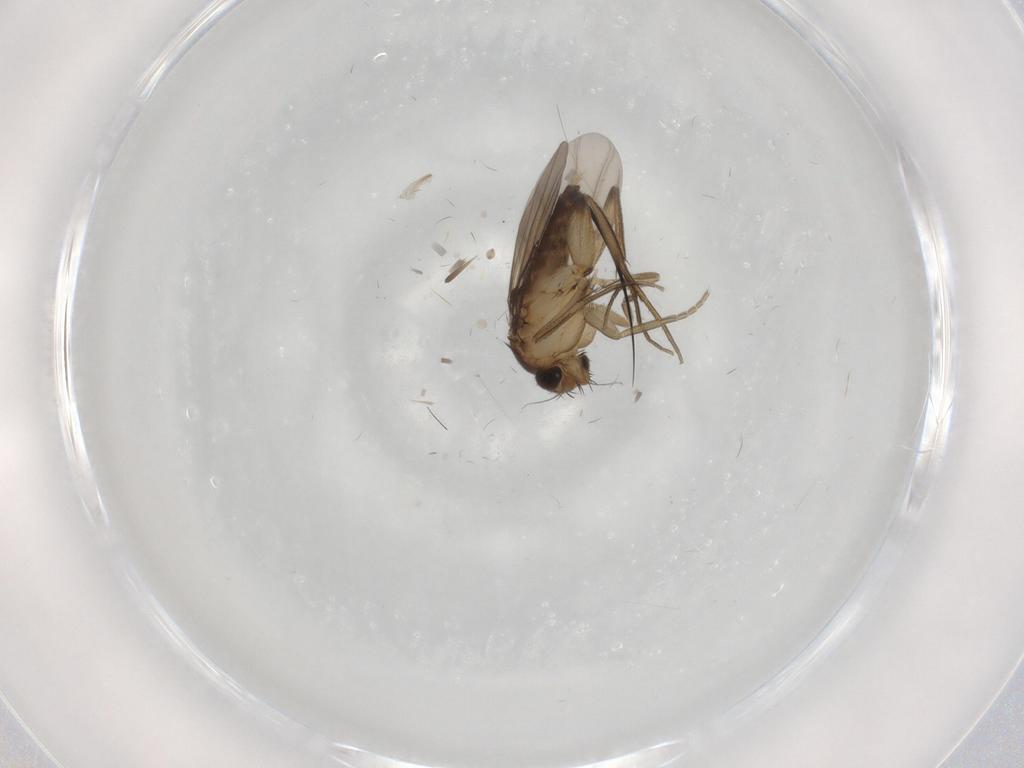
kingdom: Animalia
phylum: Arthropoda
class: Insecta
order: Diptera
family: Phoridae
